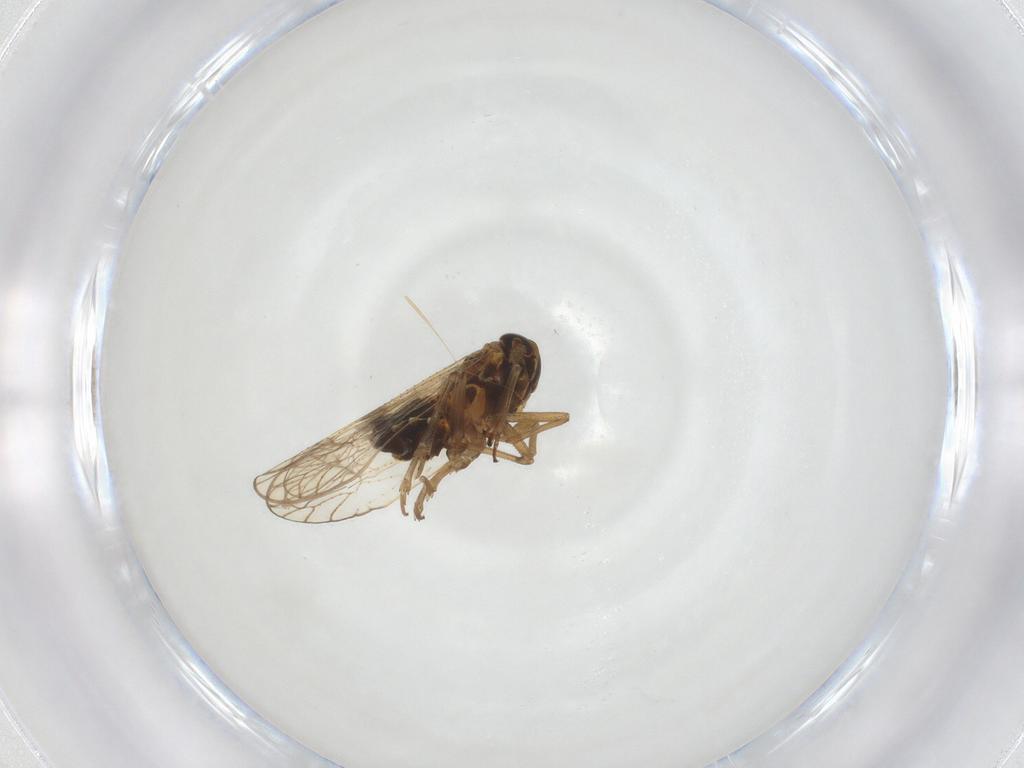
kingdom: Animalia
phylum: Arthropoda
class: Insecta
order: Hemiptera
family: Delphacidae
